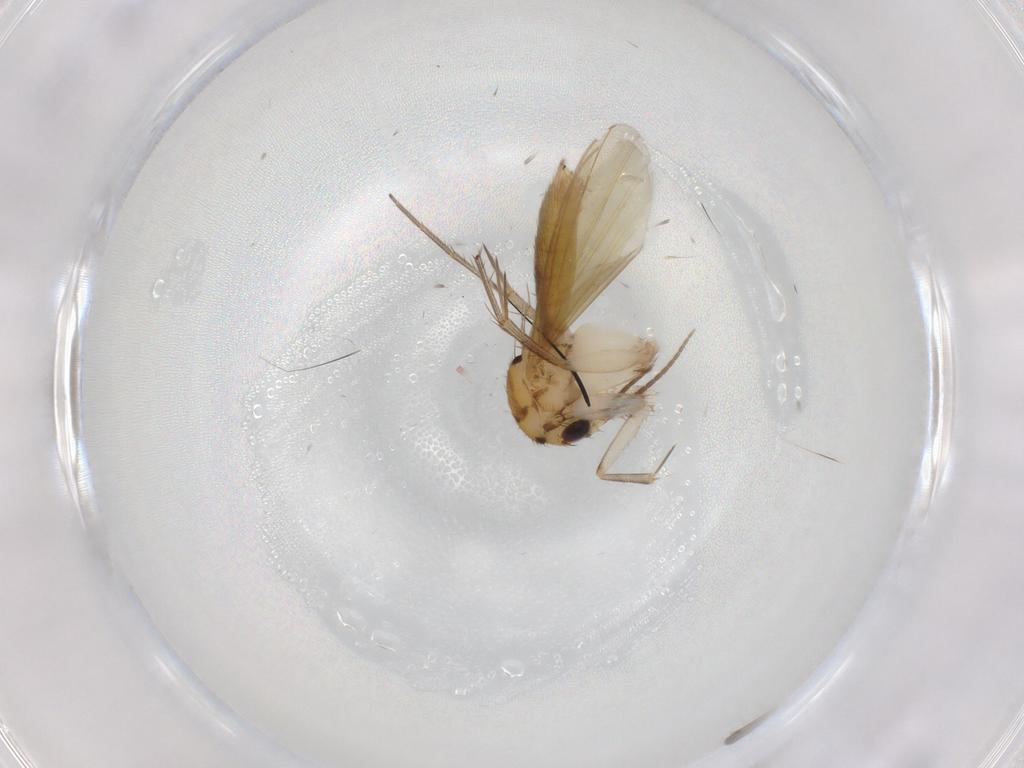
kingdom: Animalia
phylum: Arthropoda
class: Insecta
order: Diptera
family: Mycetophilidae
